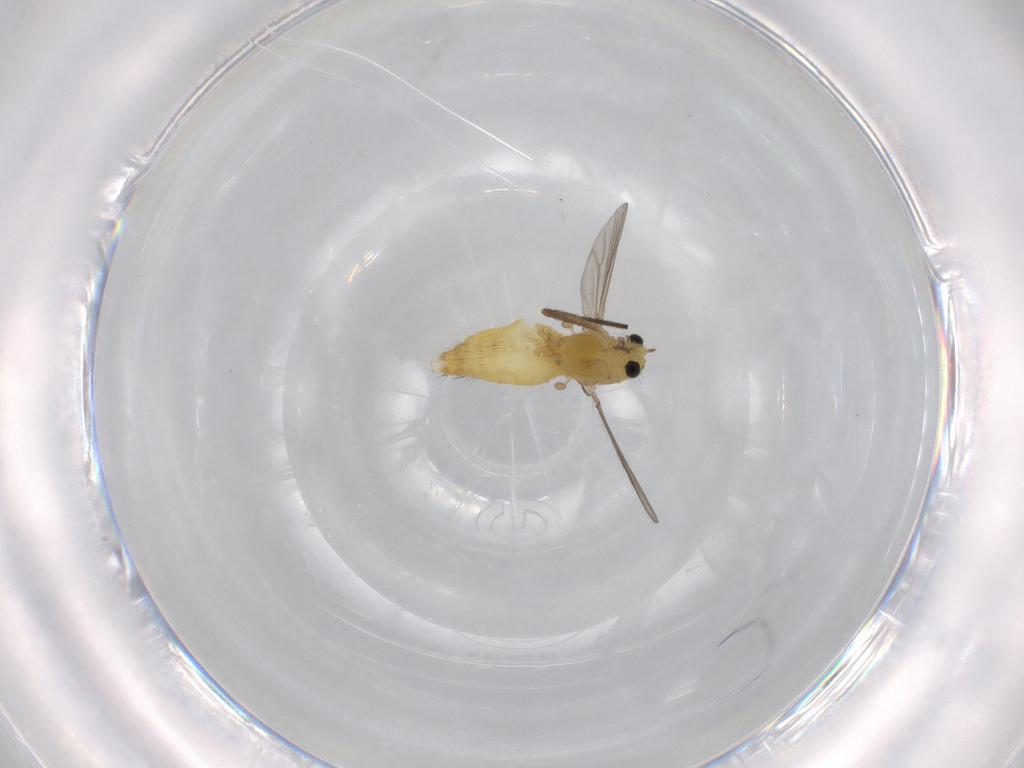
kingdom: Animalia
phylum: Arthropoda
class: Insecta
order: Diptera
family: Chironomidae
